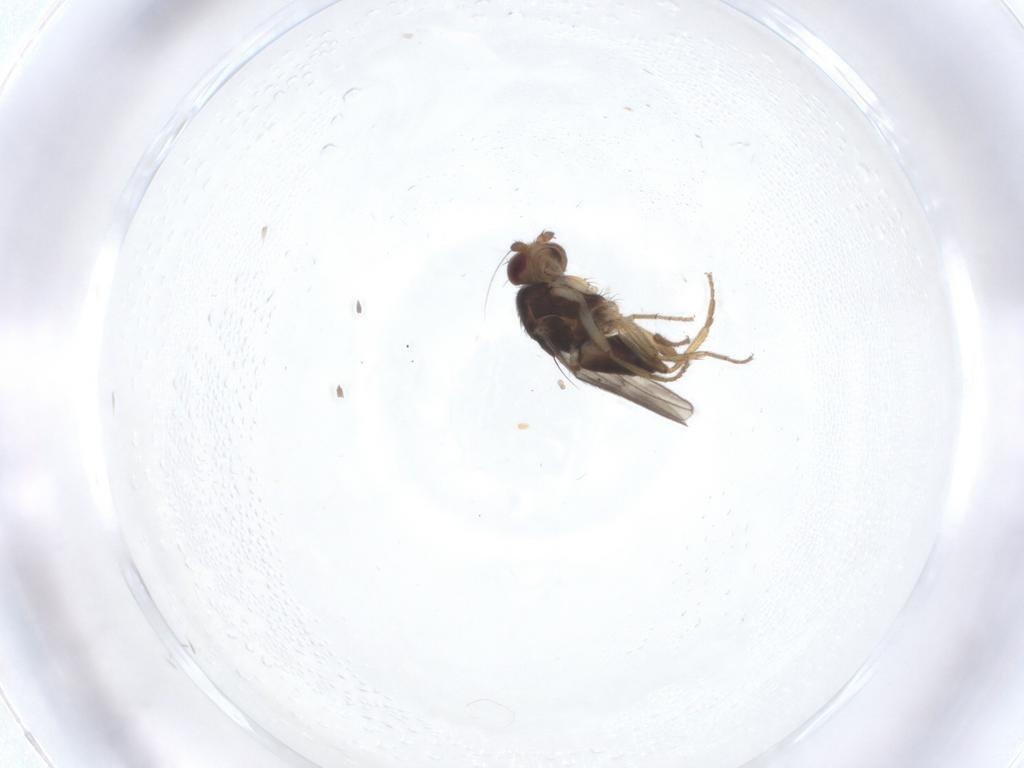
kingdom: Animalia
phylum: Arthropoda
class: Insecta
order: Diptera
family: Sphaeroceridae
